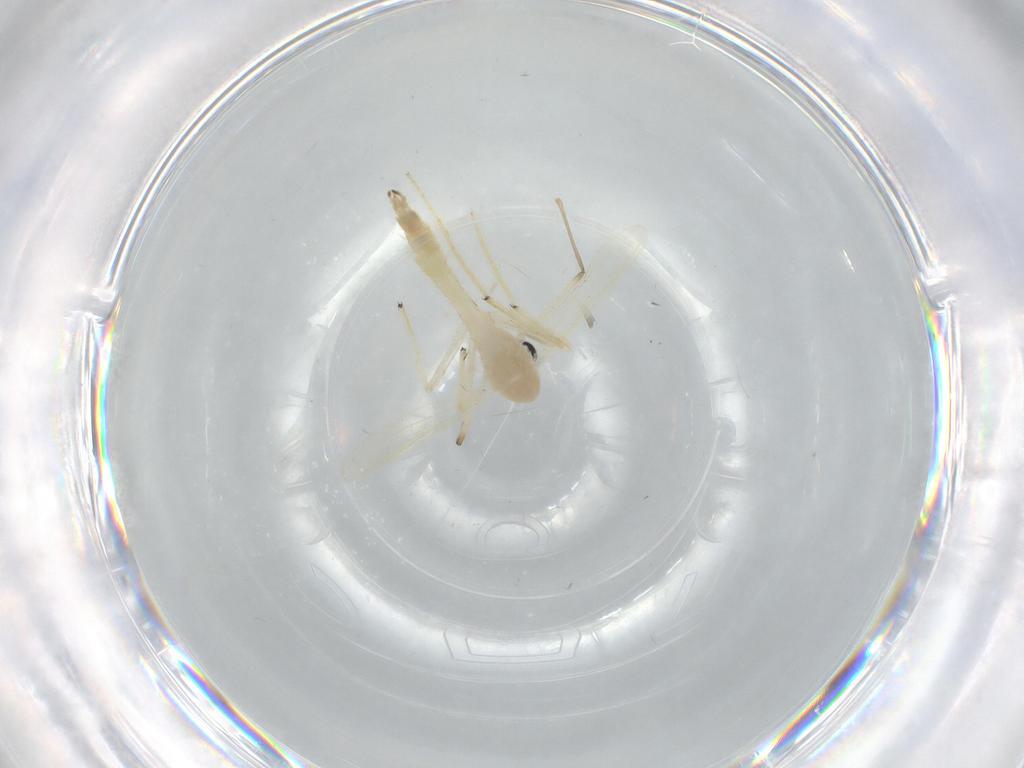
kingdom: Animalia
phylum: Arthropoda
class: Insecta
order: Diptera
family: Chironomidae
